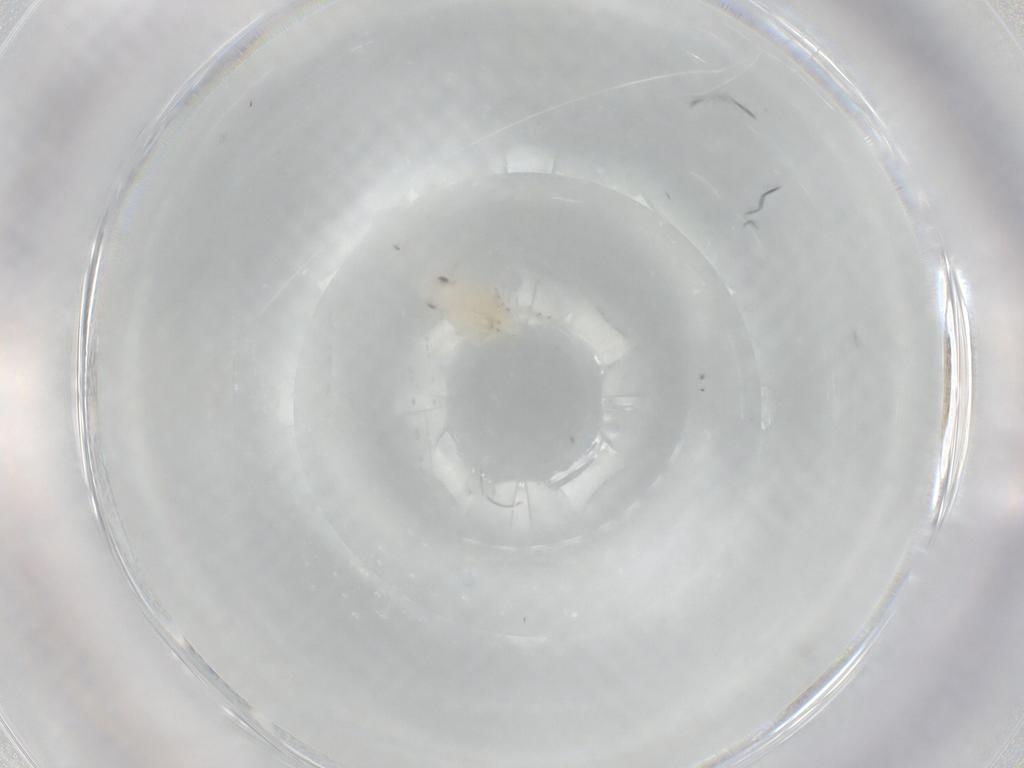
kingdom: Animalia
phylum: Arthropoda
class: Insecta
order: Hemiptera
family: Flatidae
